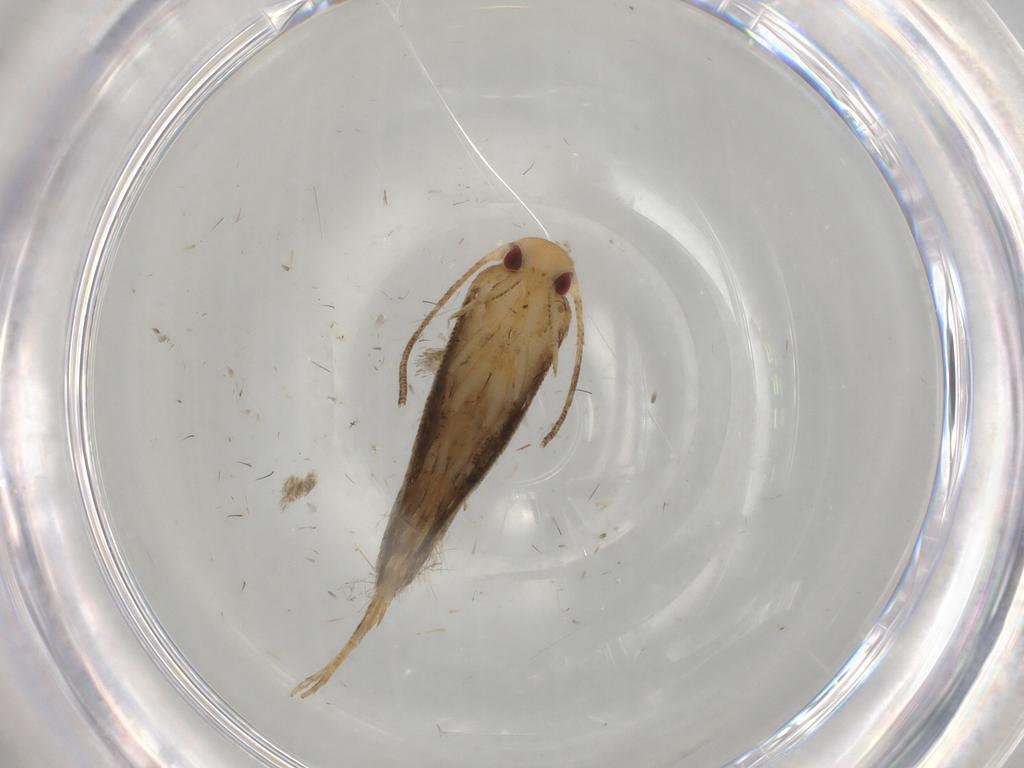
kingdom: Animalia
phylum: Arthropoda
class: Insecta
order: Lepidoptera
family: Tineidae
